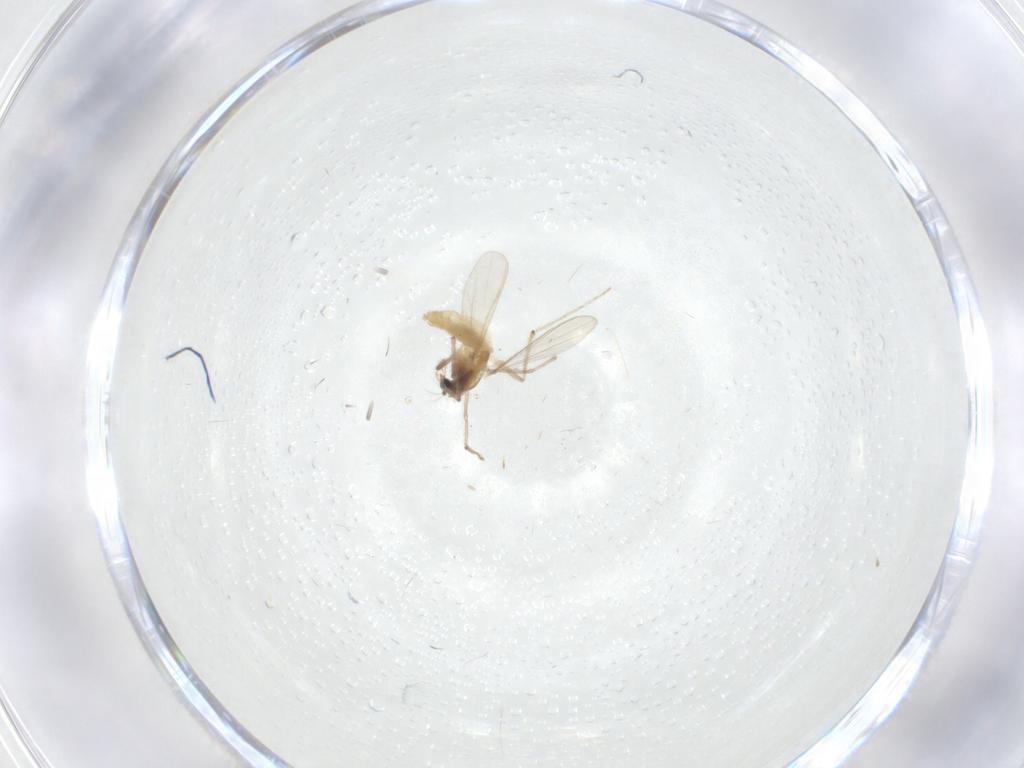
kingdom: Animalia
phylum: Arthropoda
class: Insecta
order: Diptera
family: Chironomidae
